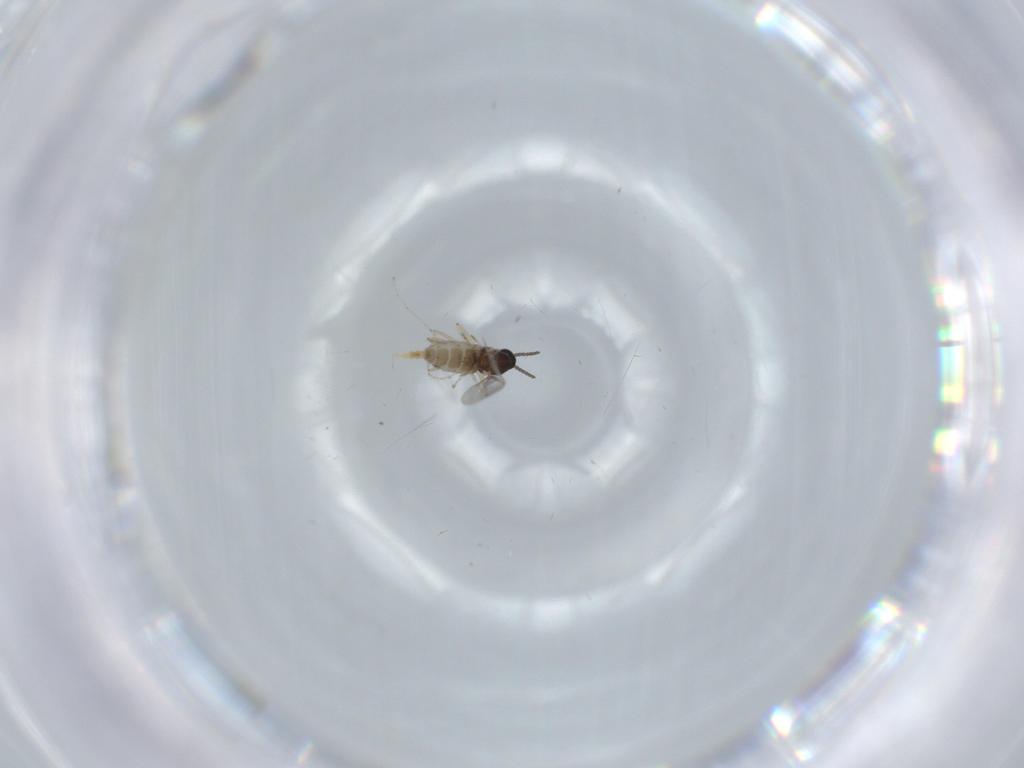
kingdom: Animalia
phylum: Arthropoda
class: Insecta
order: Diptera
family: Cecidomyiidae
